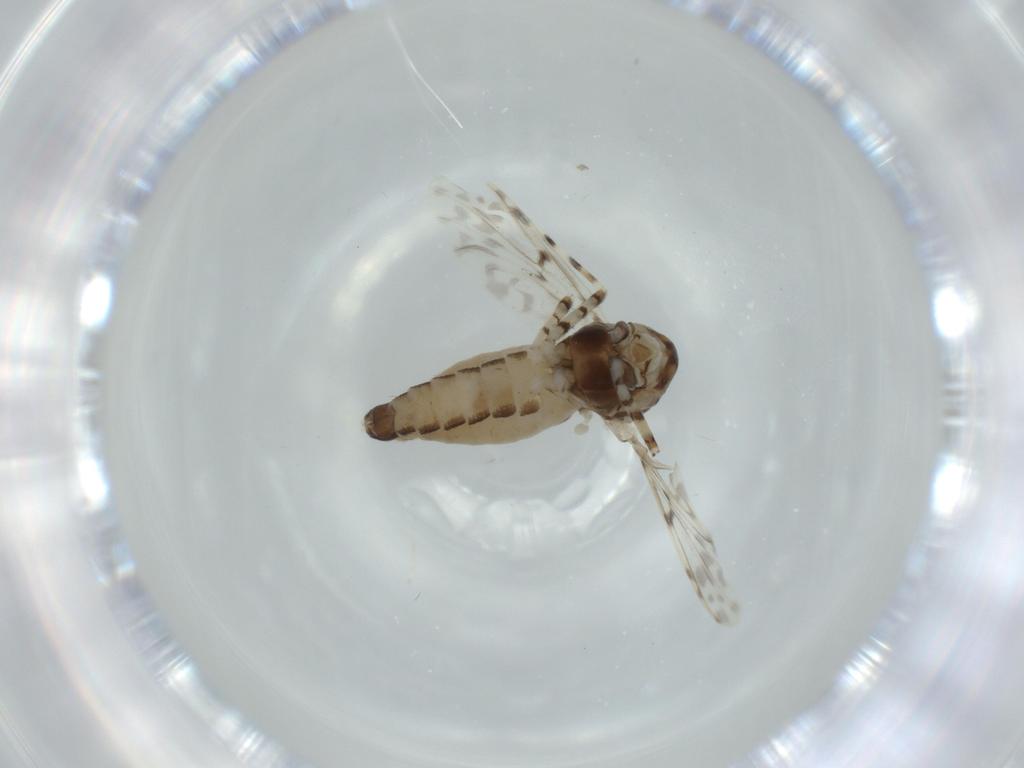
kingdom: Animalia
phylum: Arthropoda
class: Insecta
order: Diptera
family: Chironomidae
